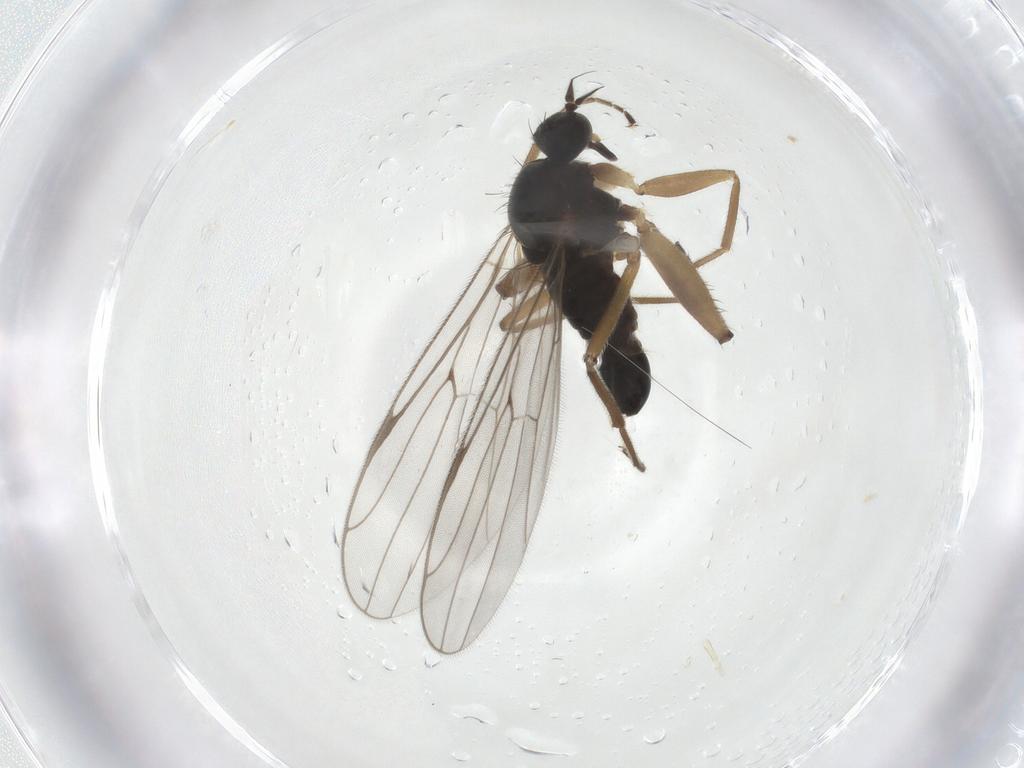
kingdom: Animalia
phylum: Arthropoda
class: Insecta
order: Diptera
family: Hybotidae
